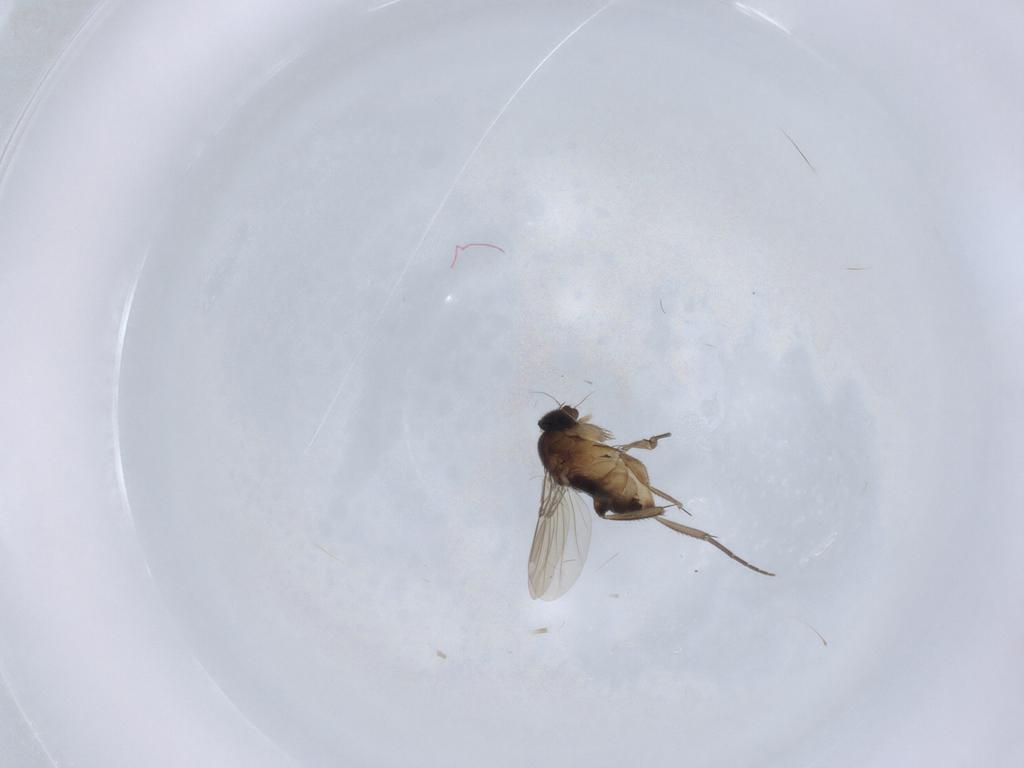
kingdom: Animalia
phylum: Arthropoda
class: Insecta
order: Diptera
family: Phoridae
